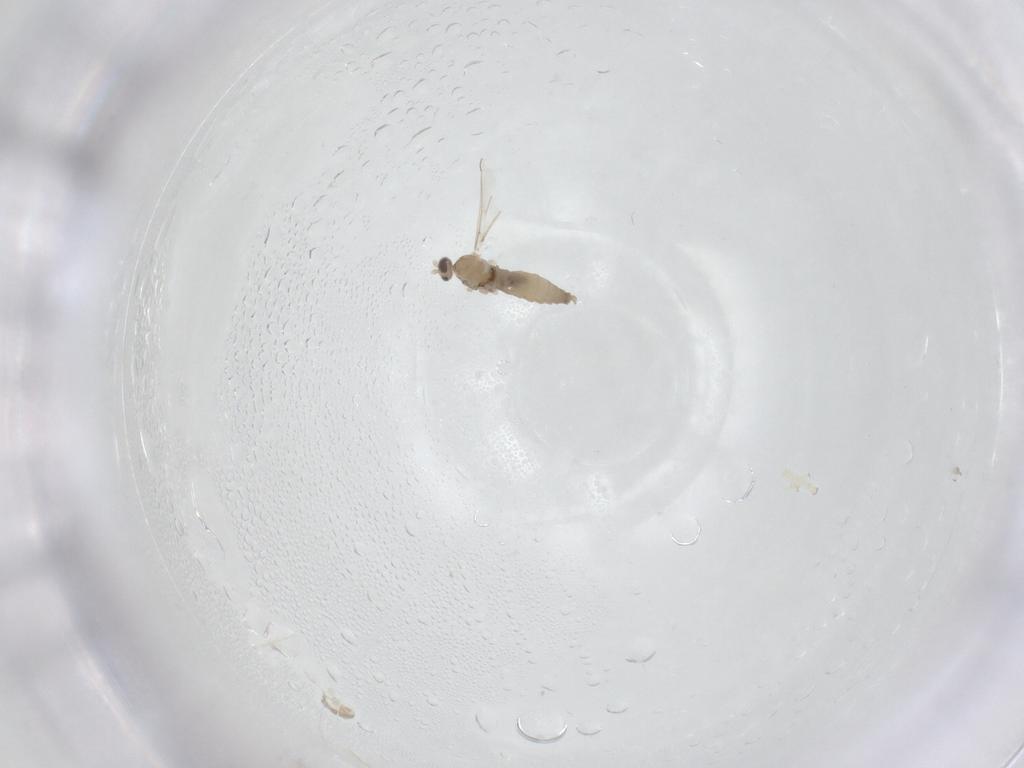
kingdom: Animalia
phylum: Arthropoda
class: Insecta
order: Diptera
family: Cecidomyiidae
